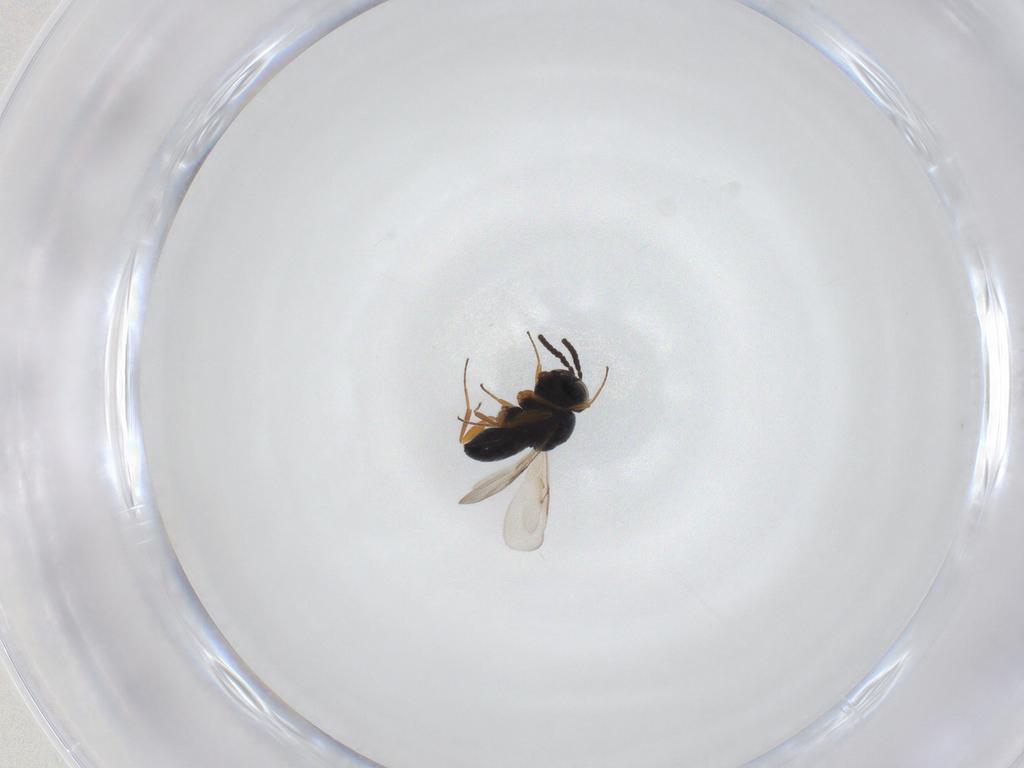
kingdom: Animalia
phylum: Arthropoda
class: Insecta
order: Hymenoptera
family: Scelionidae
